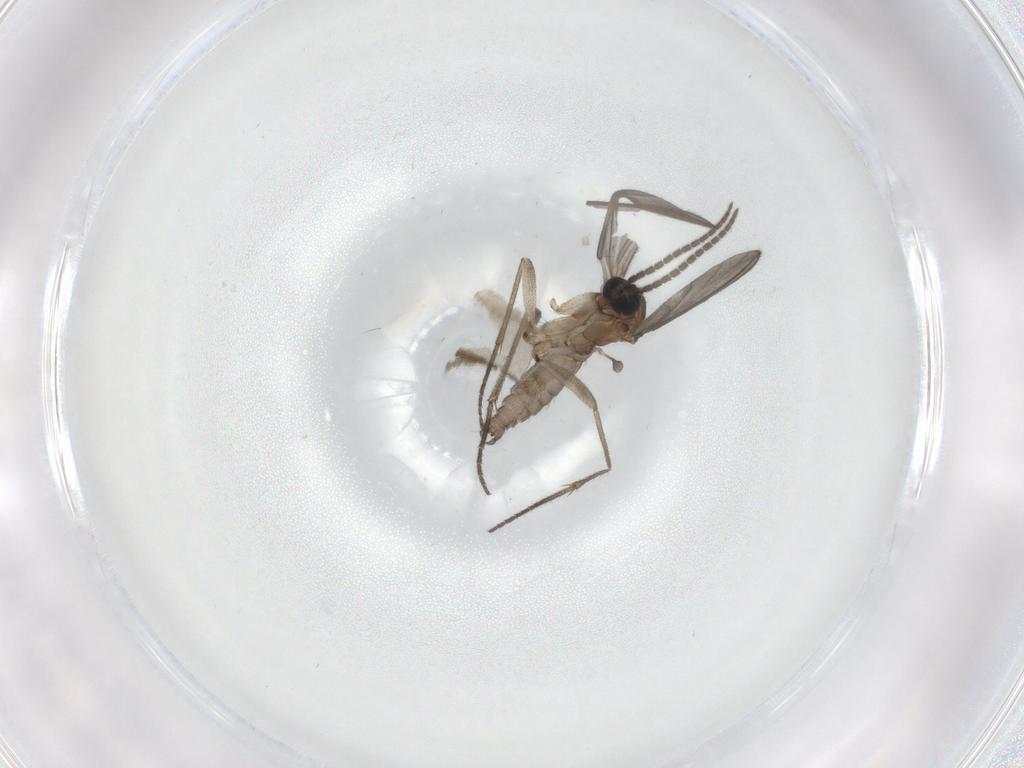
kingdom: Animalia
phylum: Arthropoda
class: Insecta
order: Diptera
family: Sciaridae
